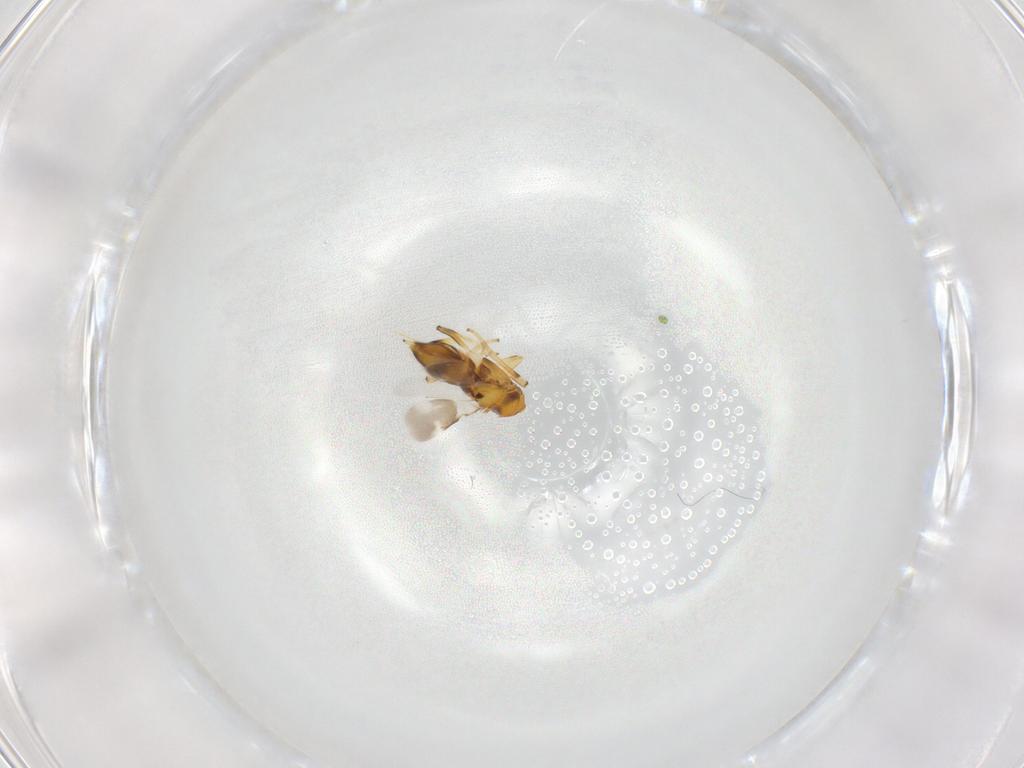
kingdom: Animalia
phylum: Arthropoda
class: Insecta
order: Hymenoptera
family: Encyrtidae
